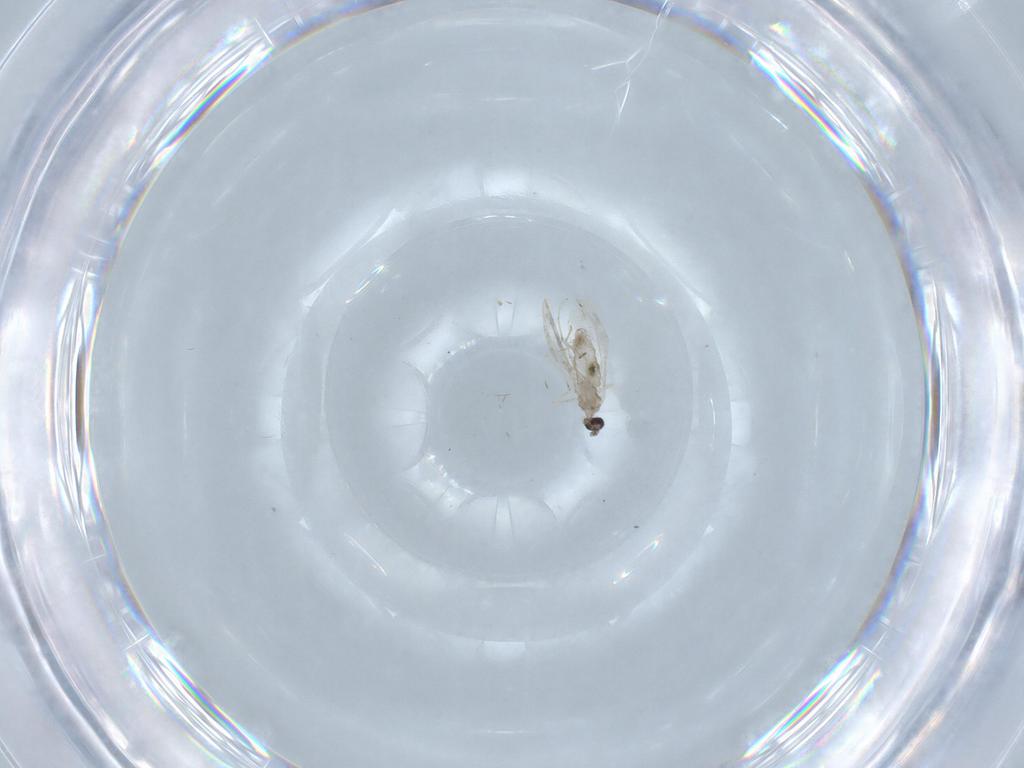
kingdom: Animalia
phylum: Arthropoda
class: Insecta
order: Diptera
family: Cecidomyiidae
